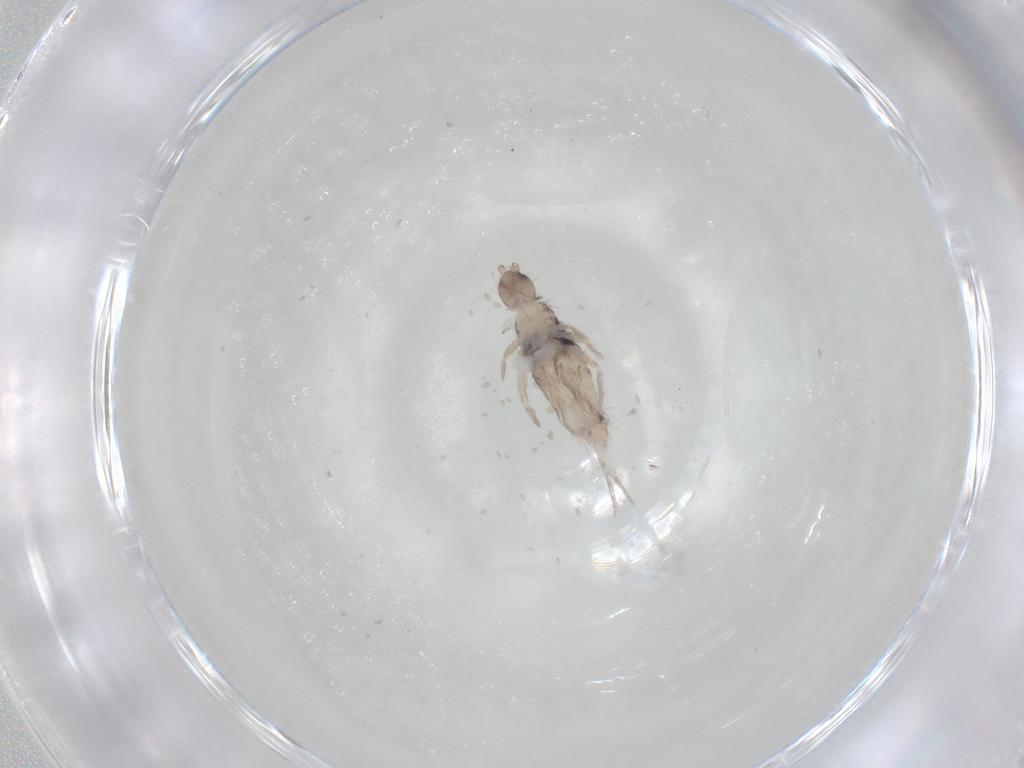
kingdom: Animalia
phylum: Arthropoda
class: Collembola
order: Entomobryomorpha
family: Entomobryidae
